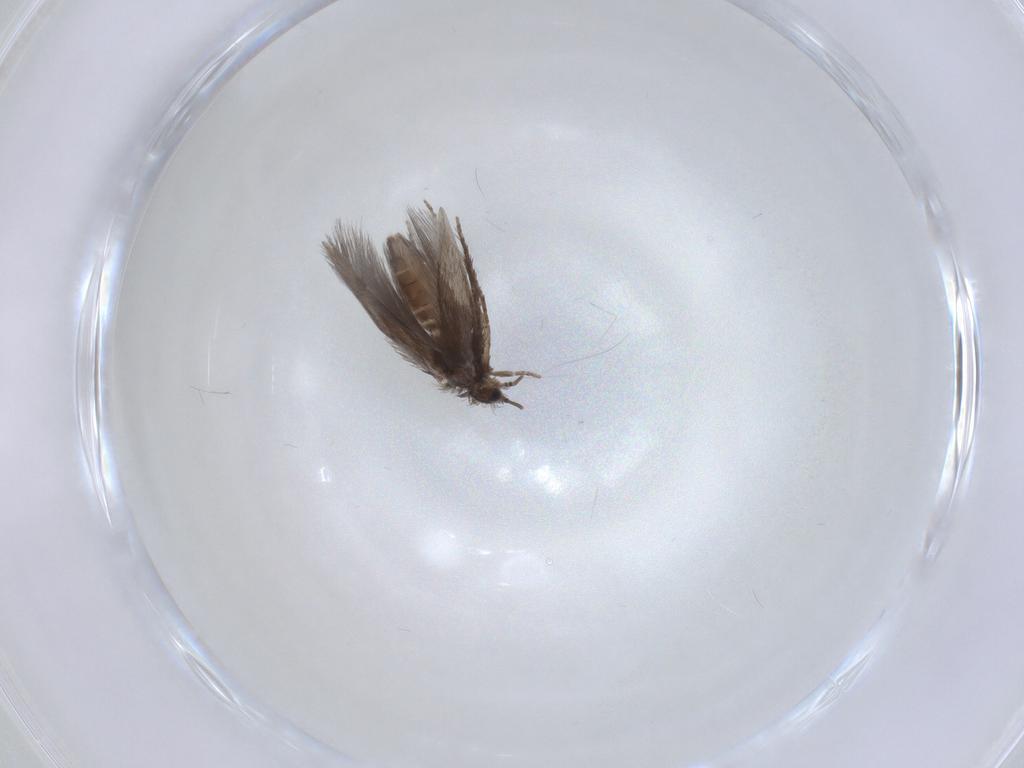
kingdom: Animalia
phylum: Arthropoda
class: Insecta
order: Trichoptera
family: Hydroptilidae
